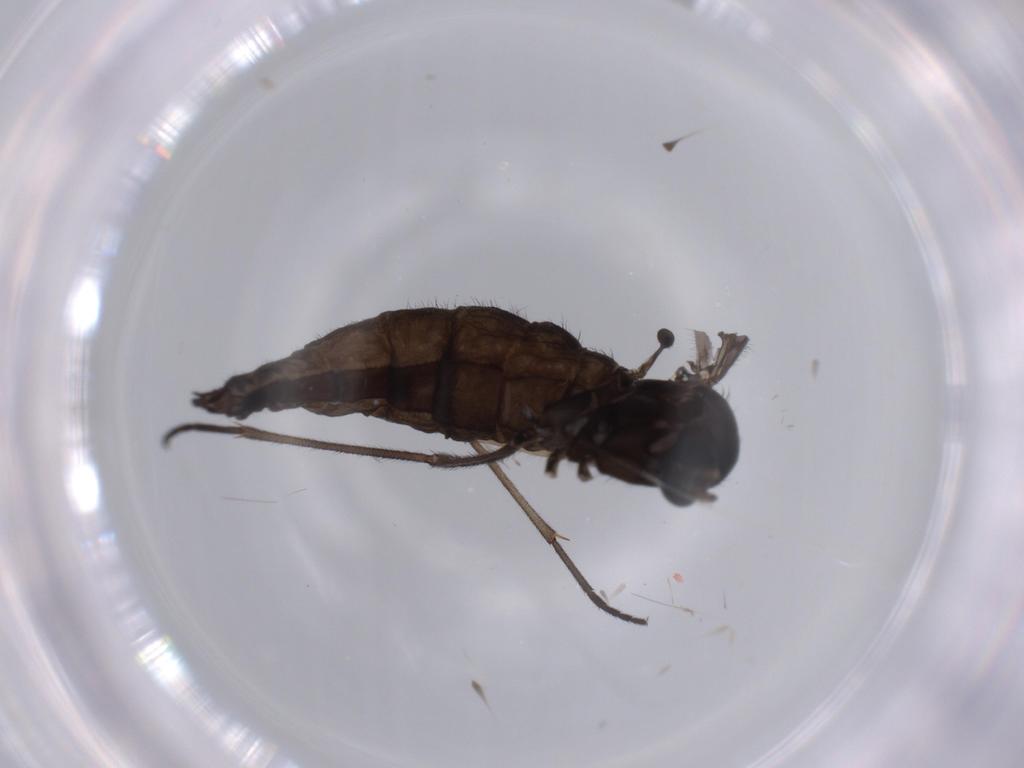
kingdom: Animalia
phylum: Arthropoda
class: Insecta
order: Diptera
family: Sciaridae
